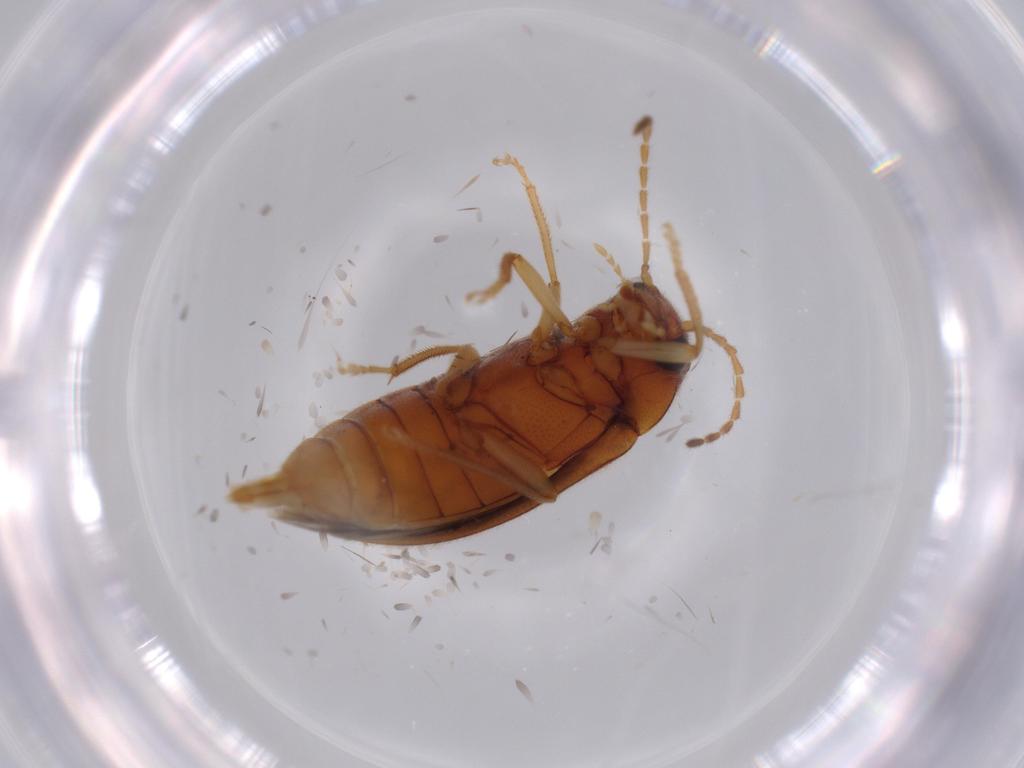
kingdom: Animalia
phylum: Arthropoda
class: Insecta
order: Coleoptera
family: Ptilodactylidae
